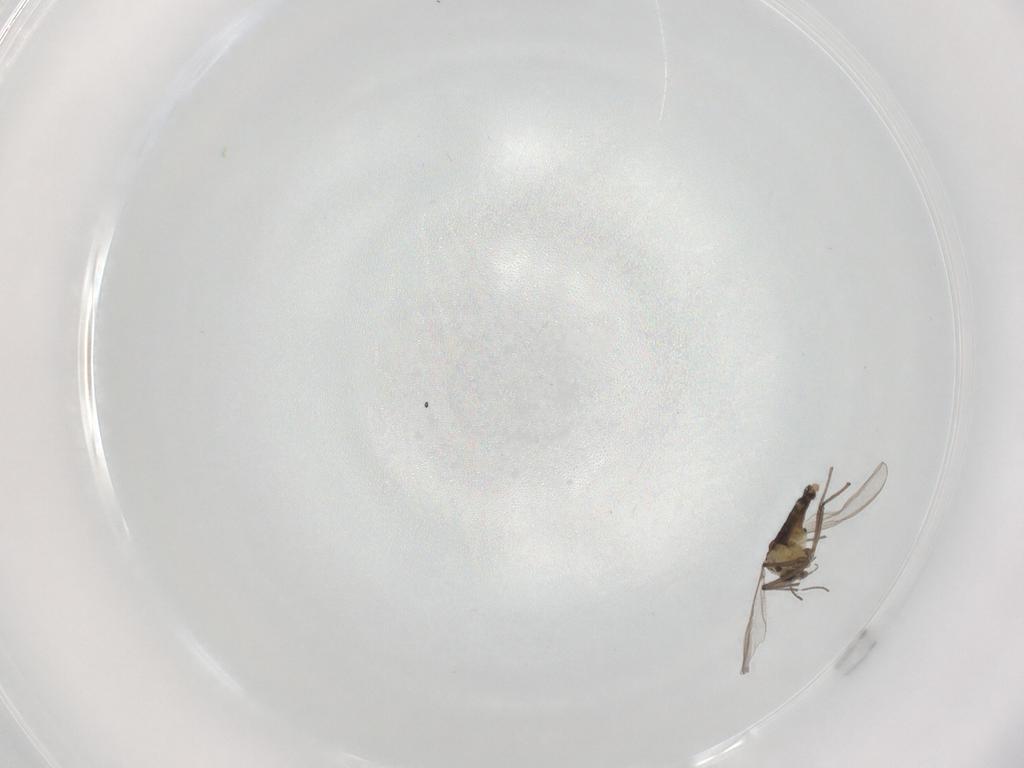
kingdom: Animalia
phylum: Arthropoda
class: Insecta
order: Diptera
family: Chironomidae
